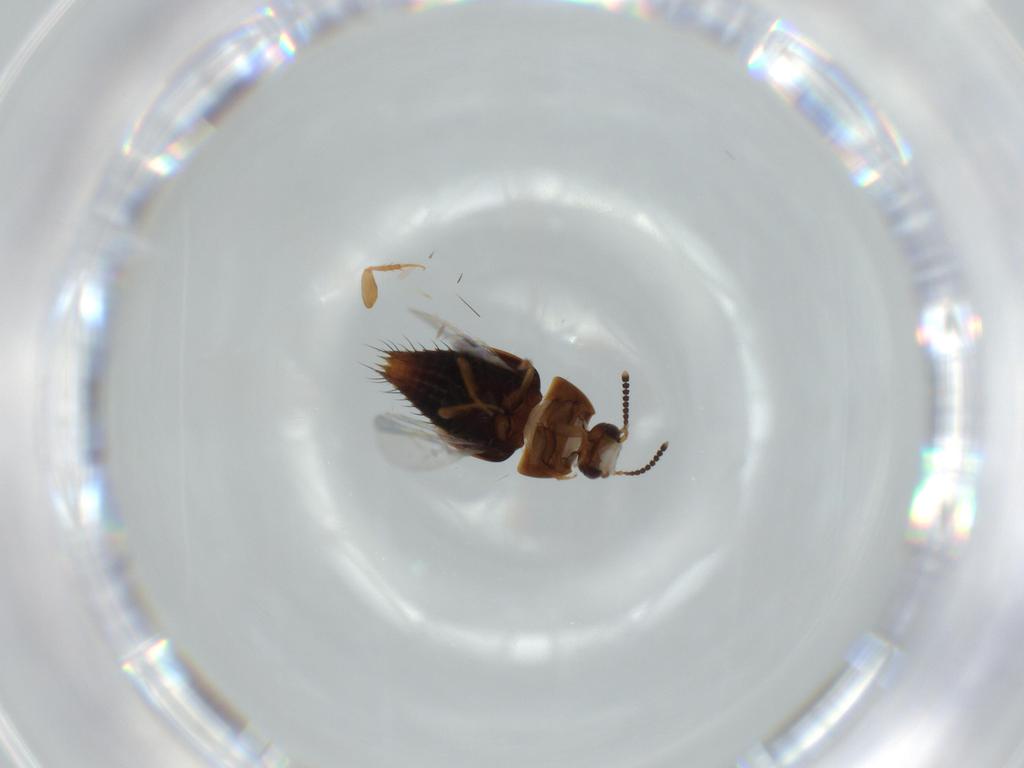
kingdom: Animalia
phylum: Arthropoda
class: Insecta
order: Coleoptera
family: Staphylinidae
